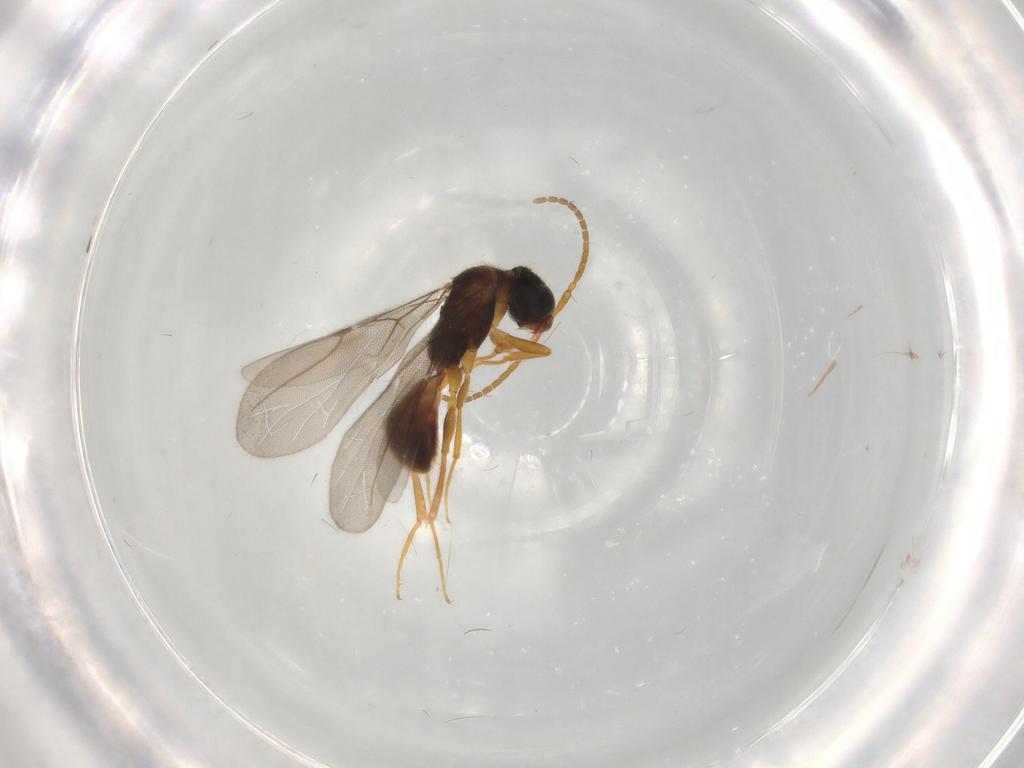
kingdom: Animalia
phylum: Arthropoda
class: Insecta
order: Hymenoptera
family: Bethylidae
